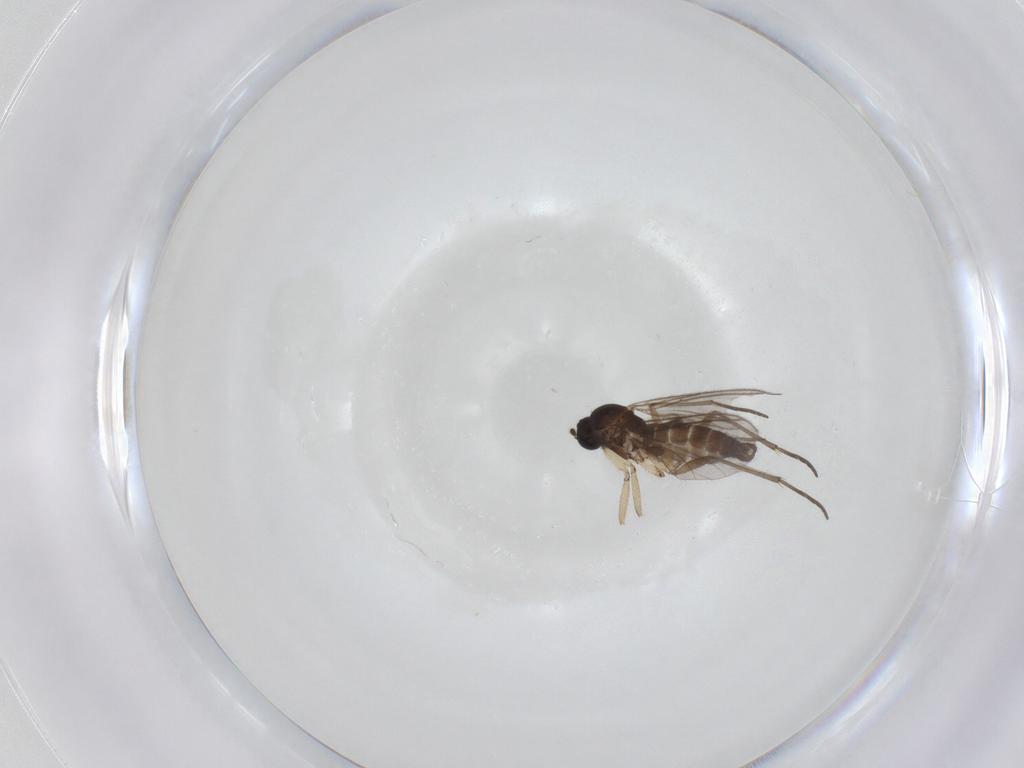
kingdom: Animalia
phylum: Arthropoda
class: Insecta
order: Diptera
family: Sciaridae
